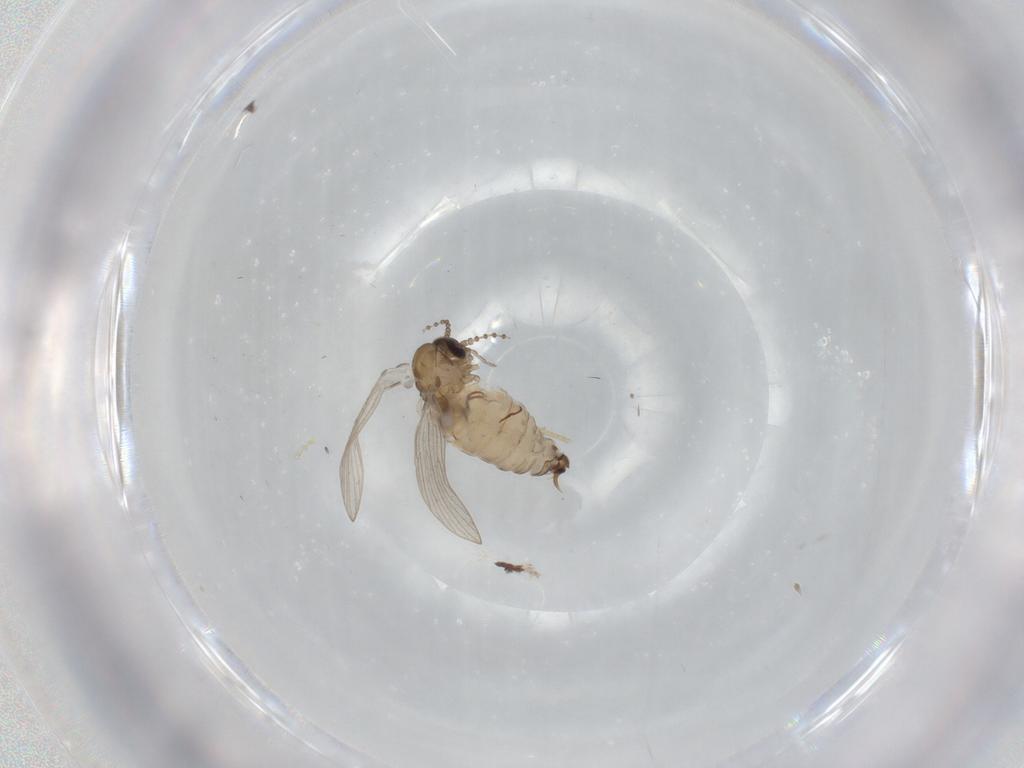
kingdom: Animalia
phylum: Arthropoda
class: Insecta
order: Diptera
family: Psychodidae
